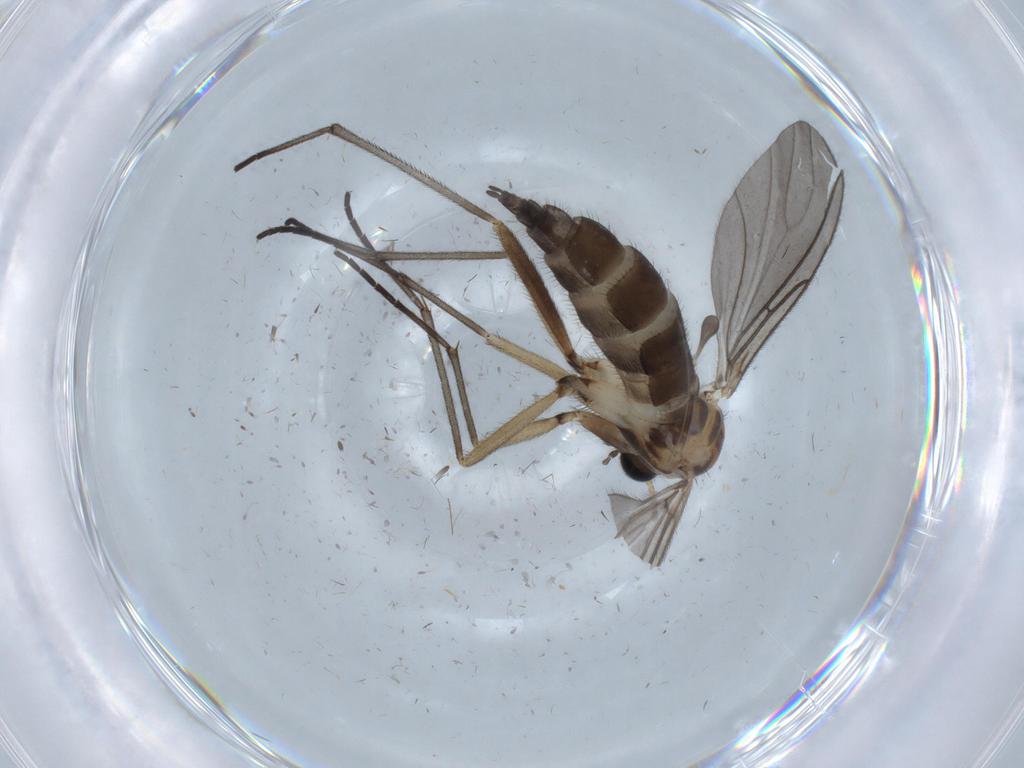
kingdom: Animalia
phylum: Arthropoda
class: Insecta
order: Diptera
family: Sciaridae
